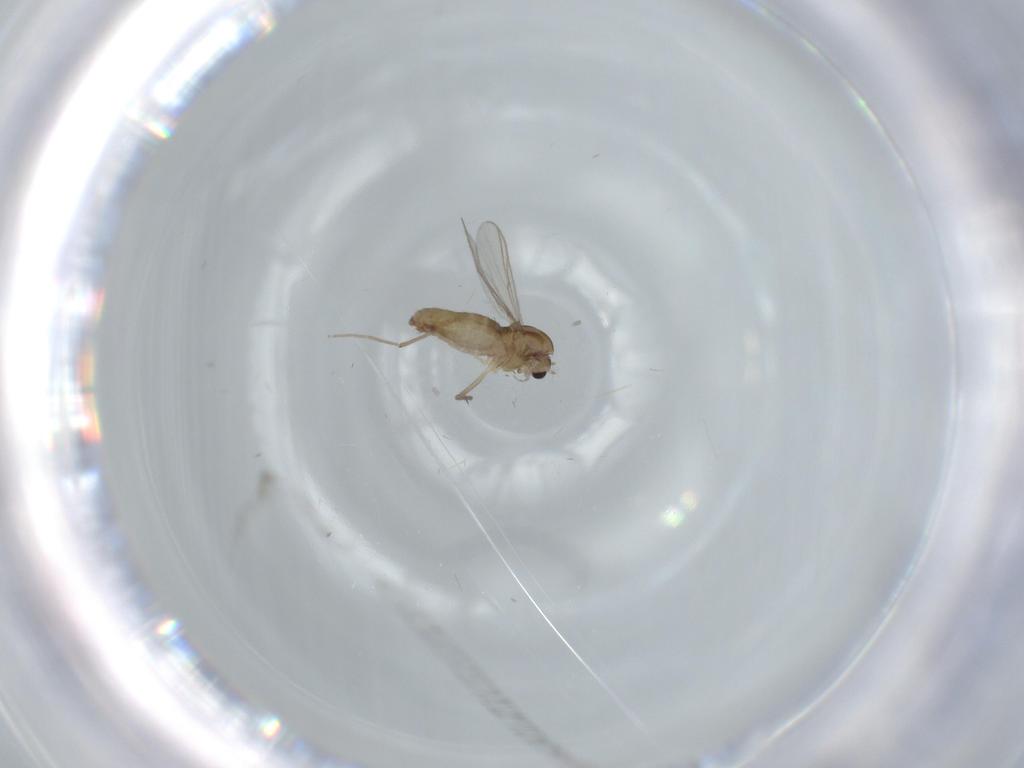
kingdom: Animalia
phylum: Arthropoda
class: Insecta
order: Diptera
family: Chironomidae
